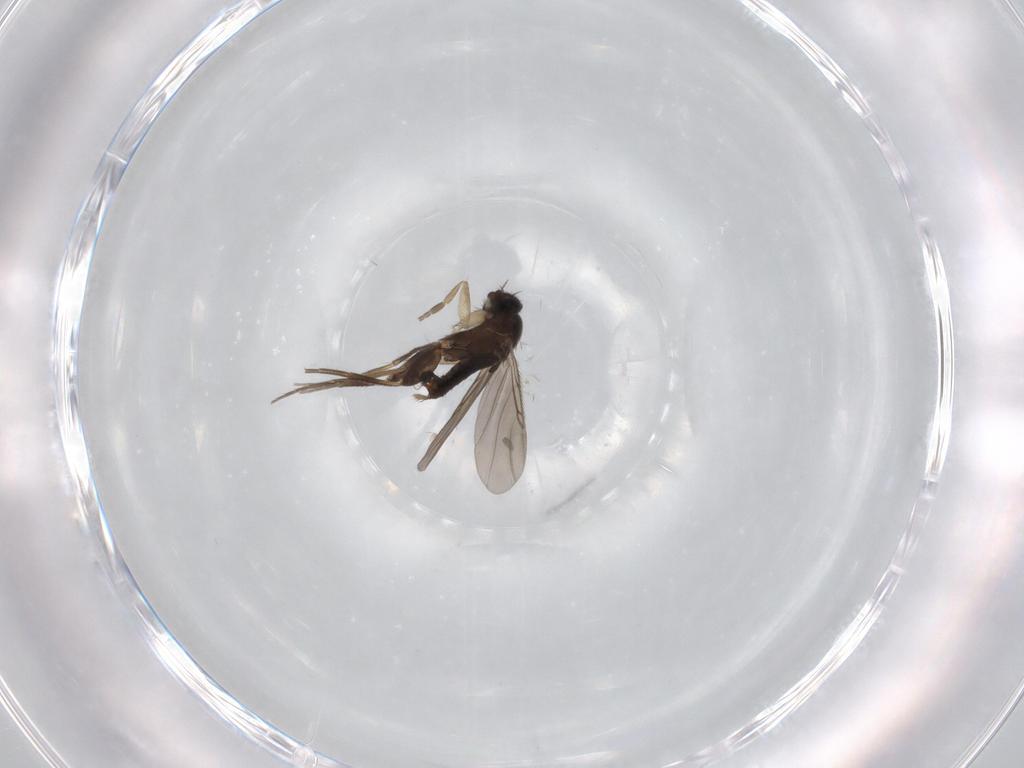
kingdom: Animalia
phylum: Arthropoda
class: Insecta
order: Diptera
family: Phoridae
